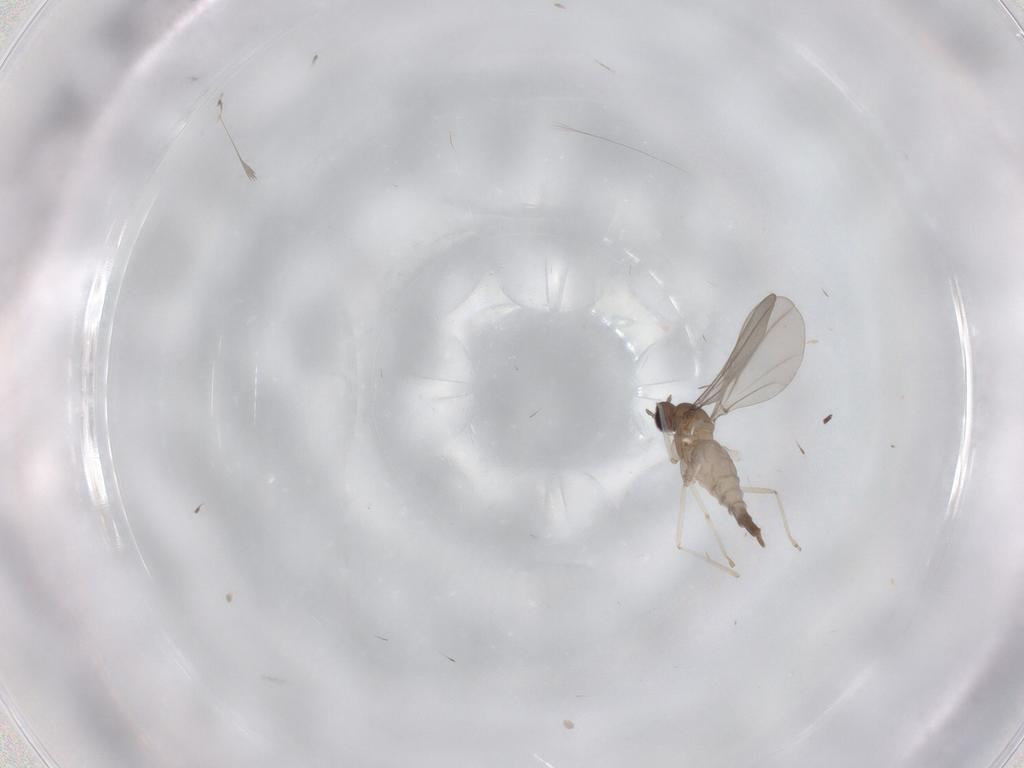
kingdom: Animalia
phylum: Arthropoda
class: Insecta
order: Diptera
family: Cecidomyiidae
